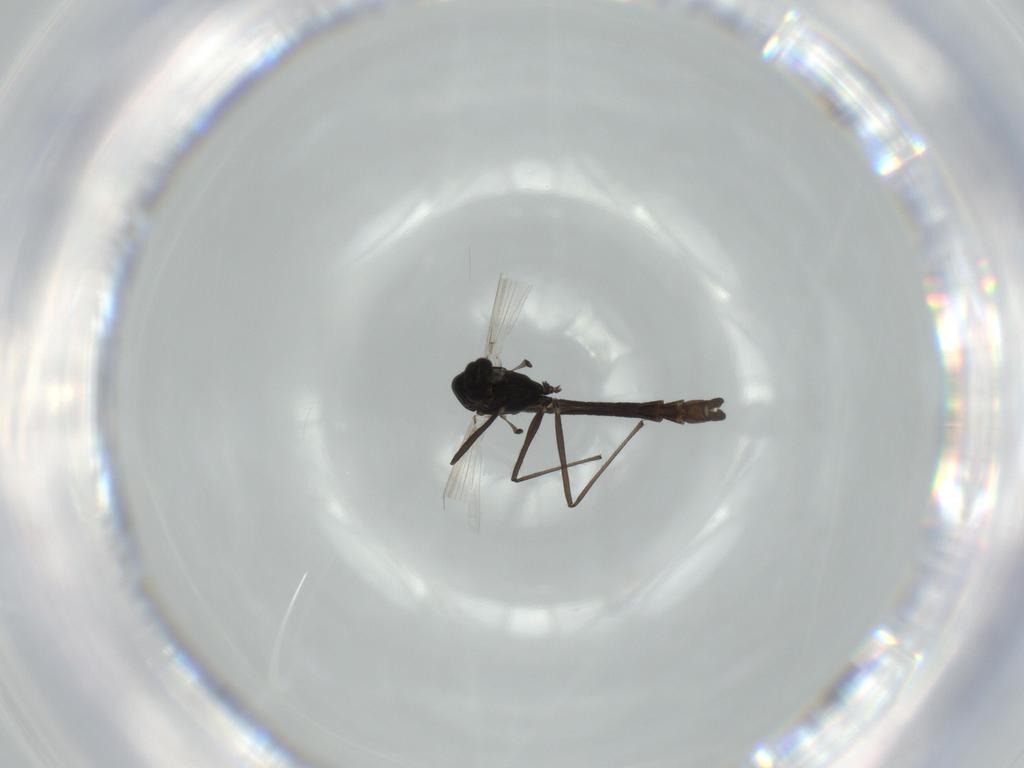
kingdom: Animalia
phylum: Arthropoda
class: Insecta
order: Diptera
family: Chironomidae
